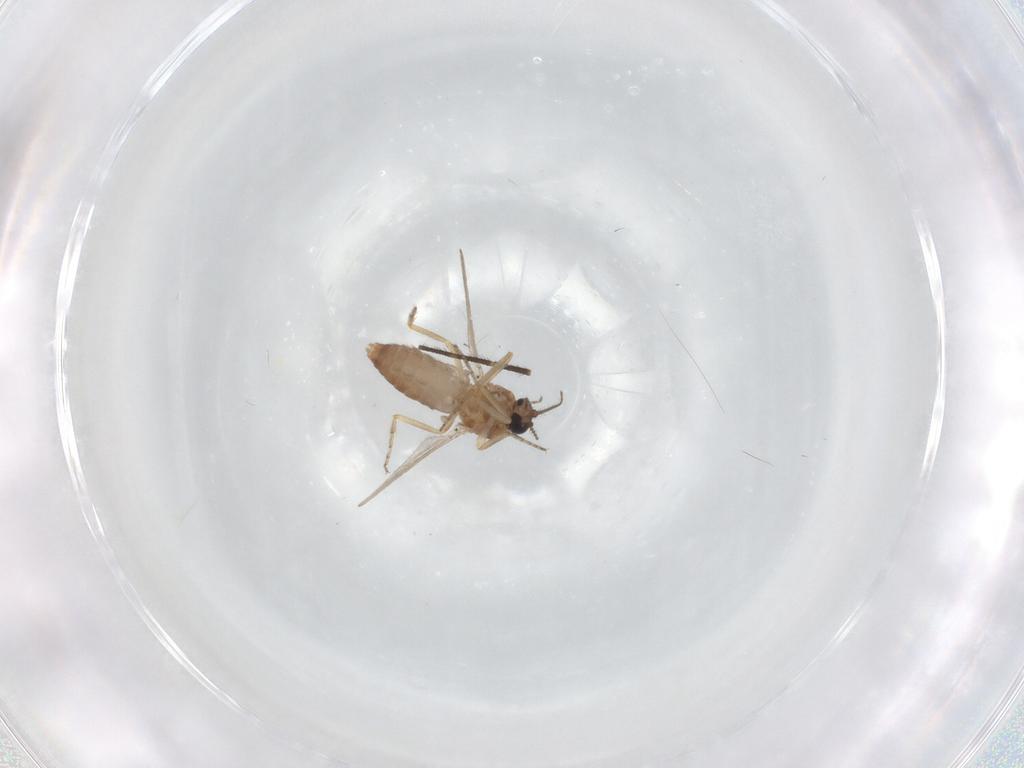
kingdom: Animalia
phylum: Arthropoda
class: Insecta
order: Diptera
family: Ceratopogonidae
